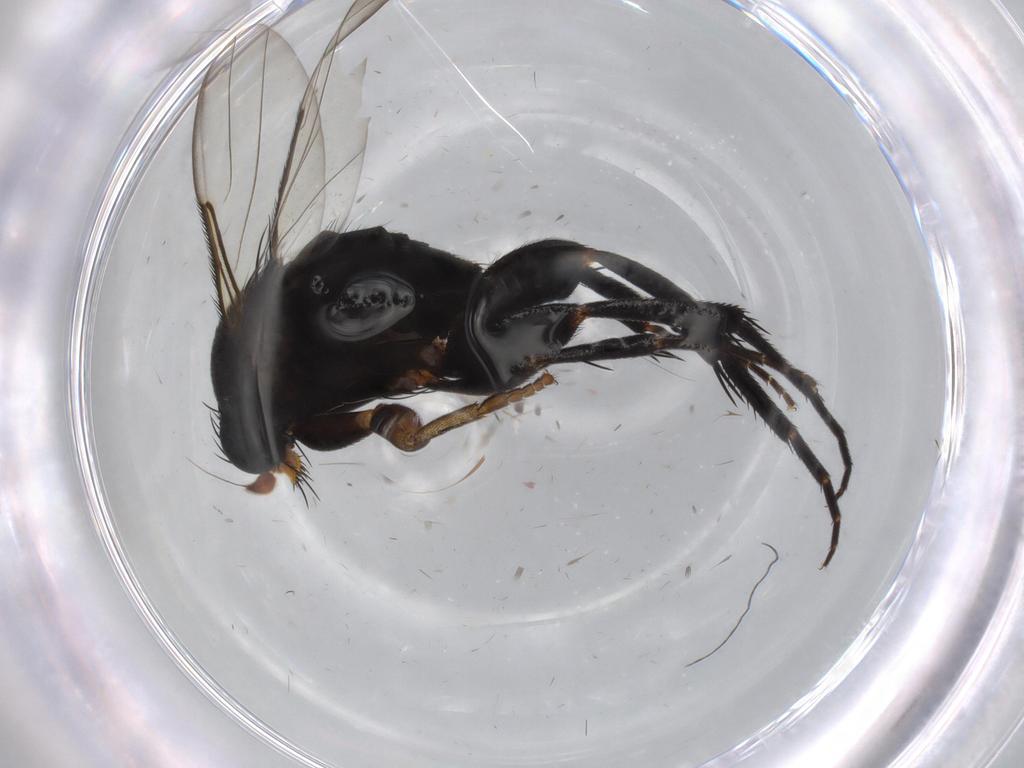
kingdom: Animalia
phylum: Arthropoda
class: Insecta
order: Diptera
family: Phoridae
